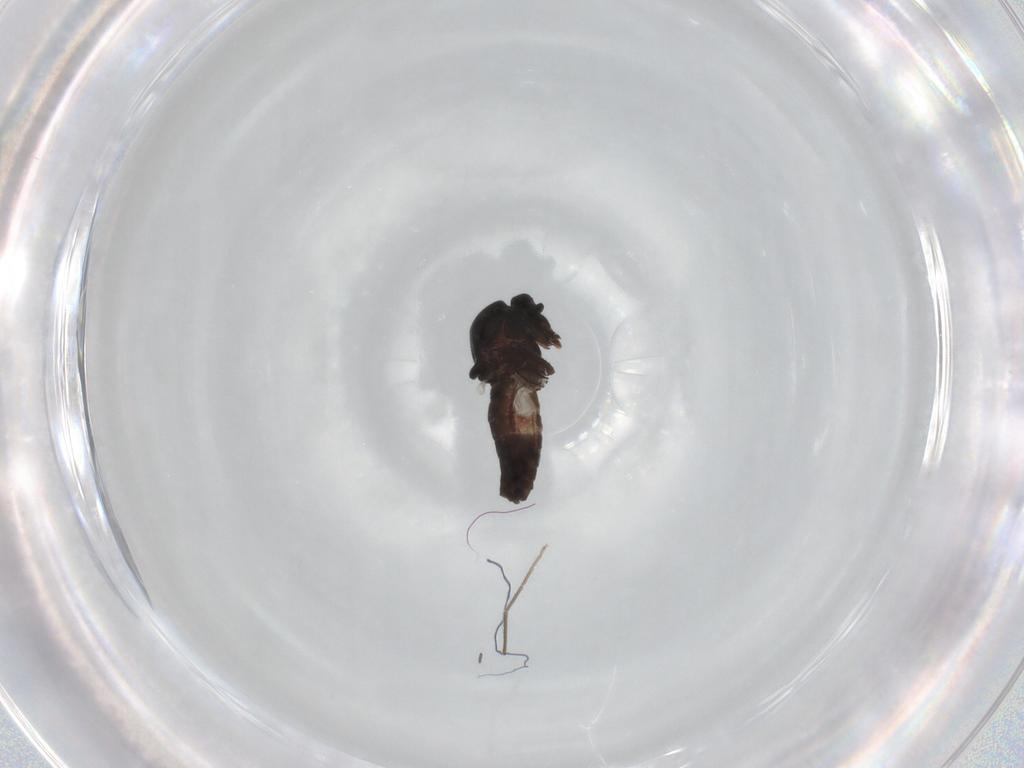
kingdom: Animalia
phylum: Arthropoda
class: Insecta
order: Diptera
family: Ceratopogonidae
